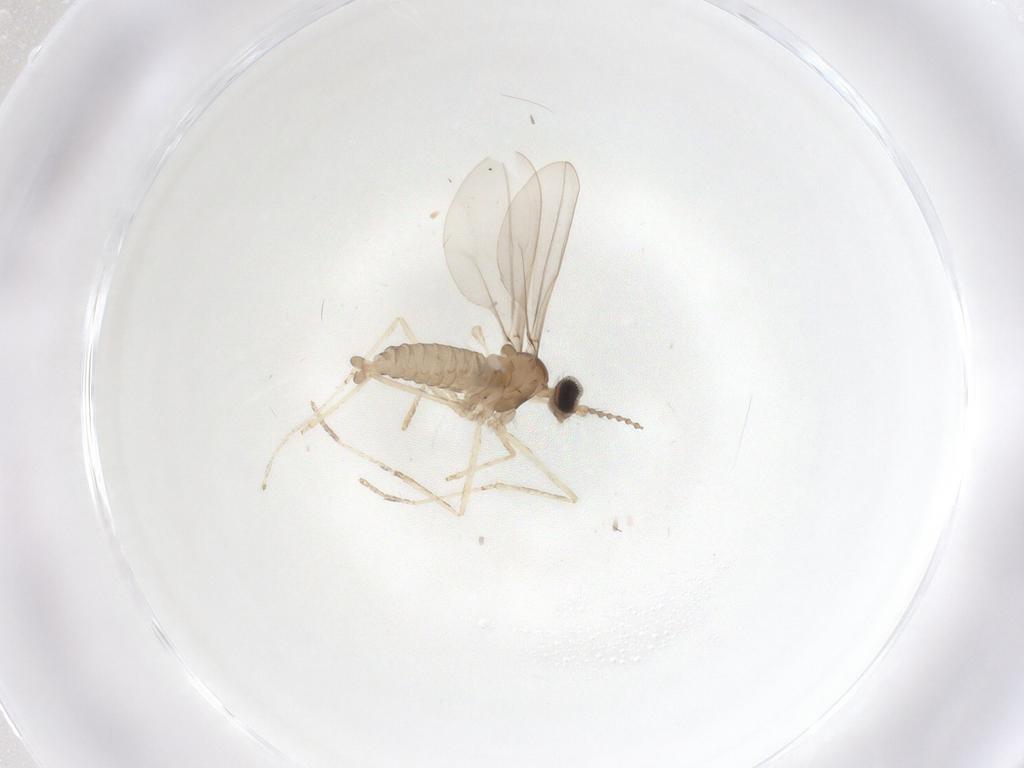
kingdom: Animalia
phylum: Arthropoda
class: Insecta
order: Diptera
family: Cecidomyiidae
